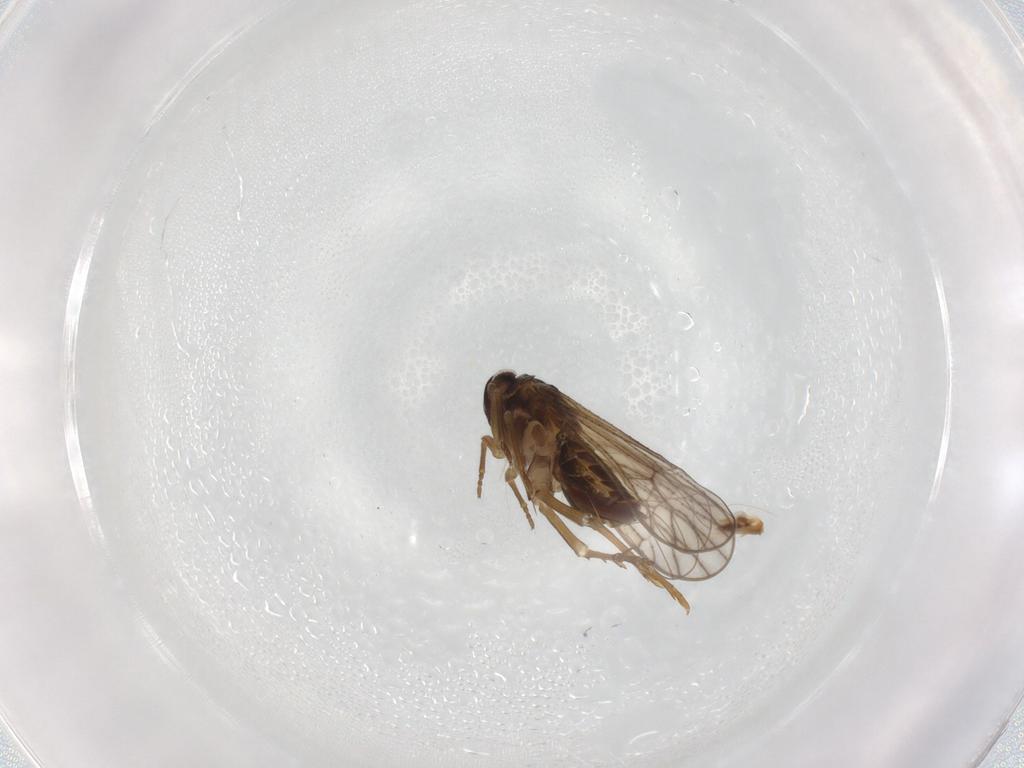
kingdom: Animalia
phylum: Arthropoda
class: Insecta
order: Hemiptera
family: Delphacidae
